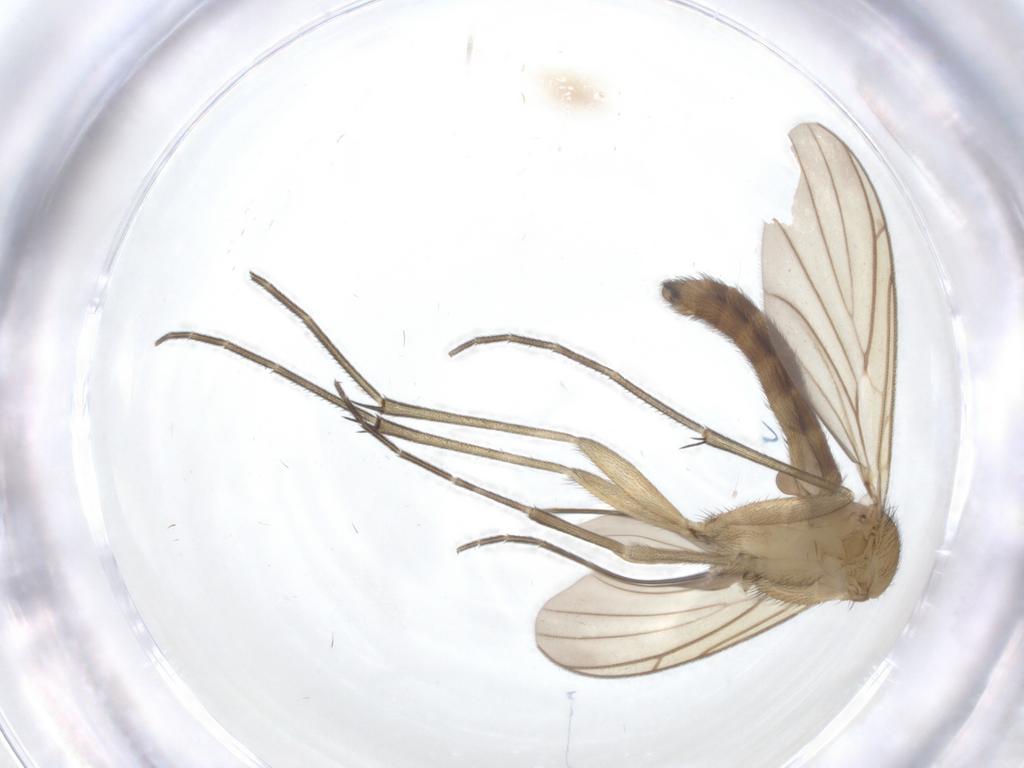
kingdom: Animalia
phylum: Arthropoda
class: Insecta
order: Diptera
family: Keroplatidae
